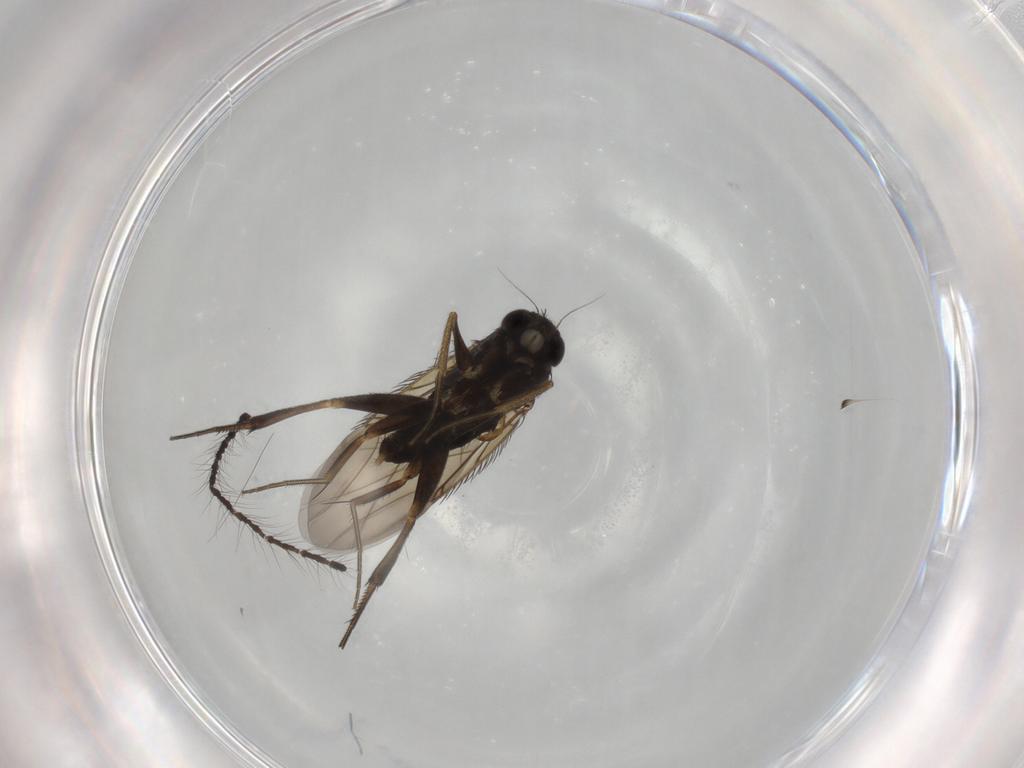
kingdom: Animalia
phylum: Arthropoda
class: Insecta
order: Diptera
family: Phoridae
